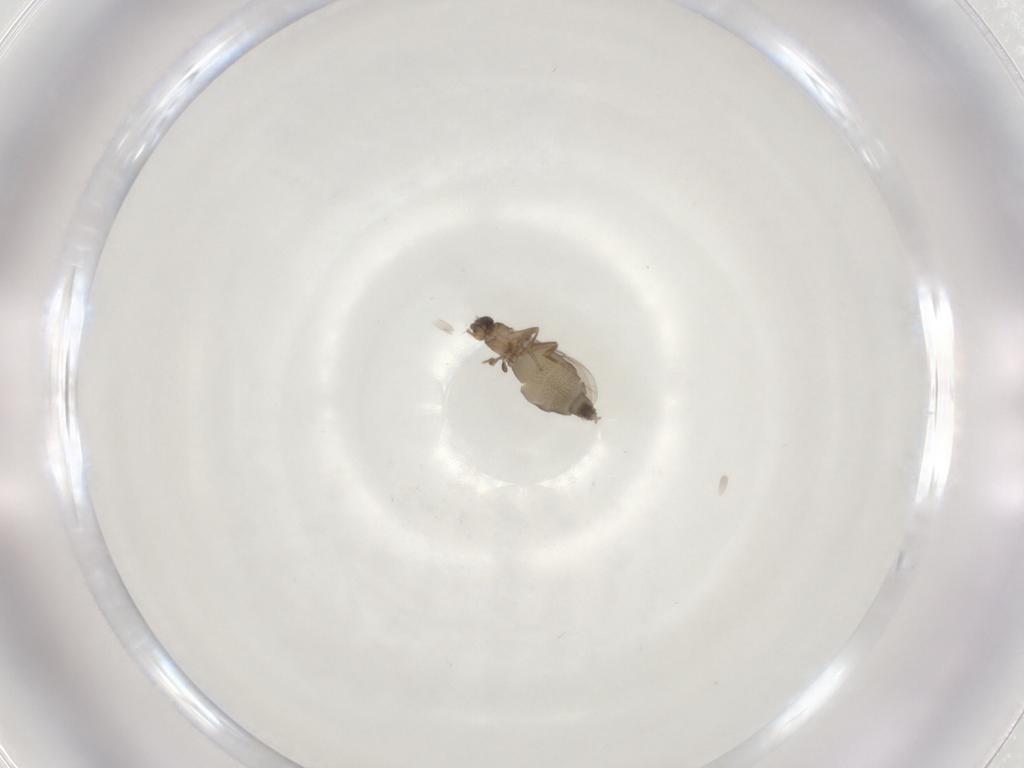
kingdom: Animalia
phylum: Arthropoda
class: Insecta
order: Diptera
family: Phoridae
